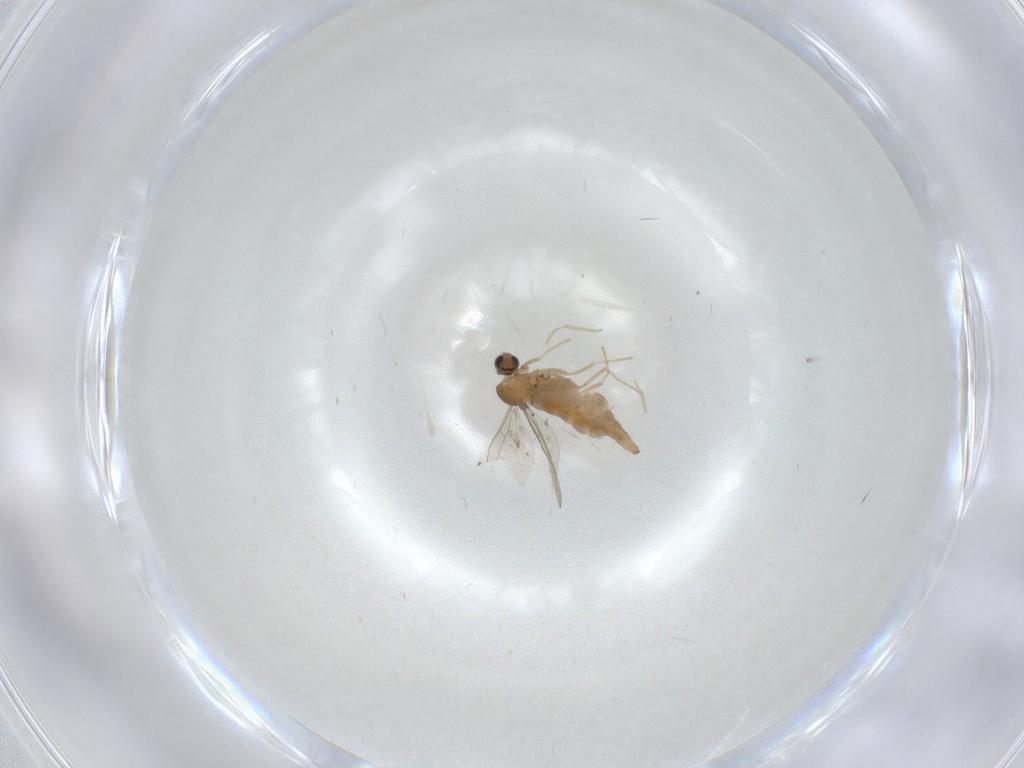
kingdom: Animalia
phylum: Arthropoda
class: Insecta
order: Diptera
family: Cecidomyiidae
